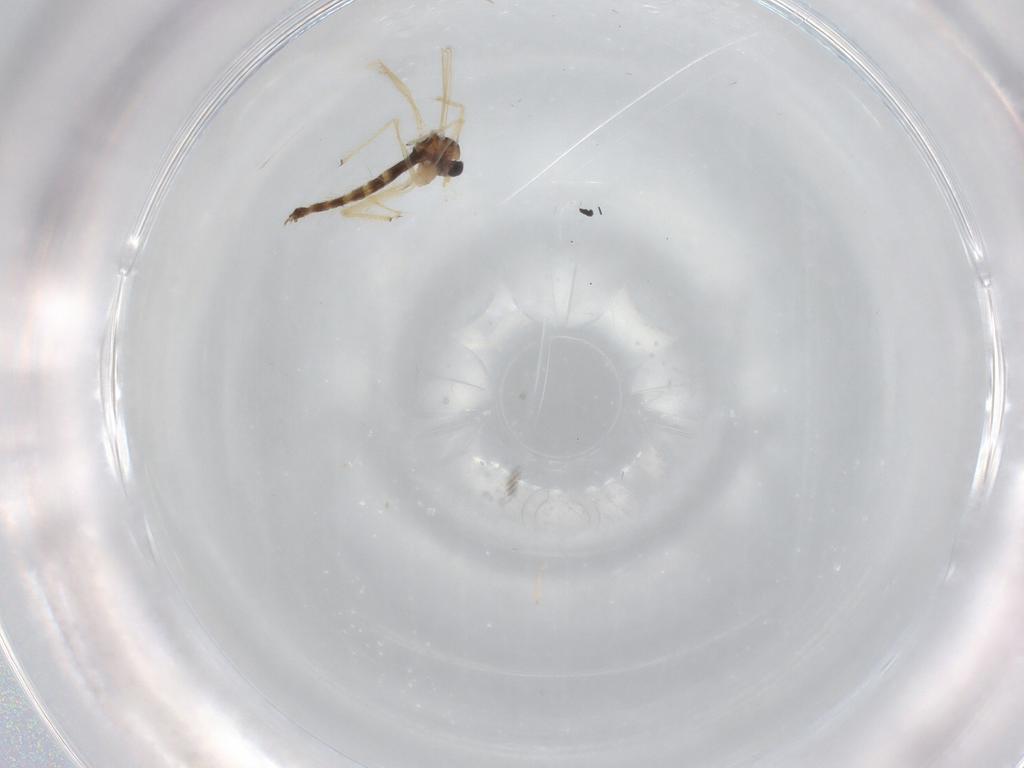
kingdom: Animalia
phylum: Arthropoda
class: Insecta
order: Diptera
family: Chironomidae
